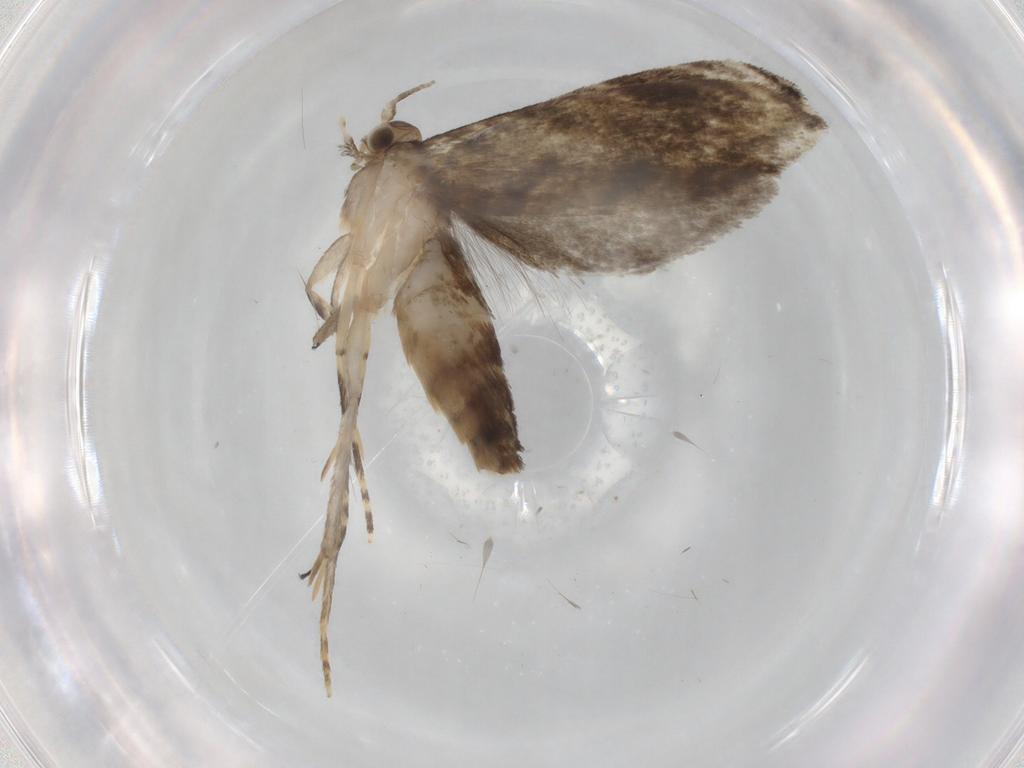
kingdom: Animalia
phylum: Arthropoda
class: Insecta
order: Lepidoptera
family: Tineidae
